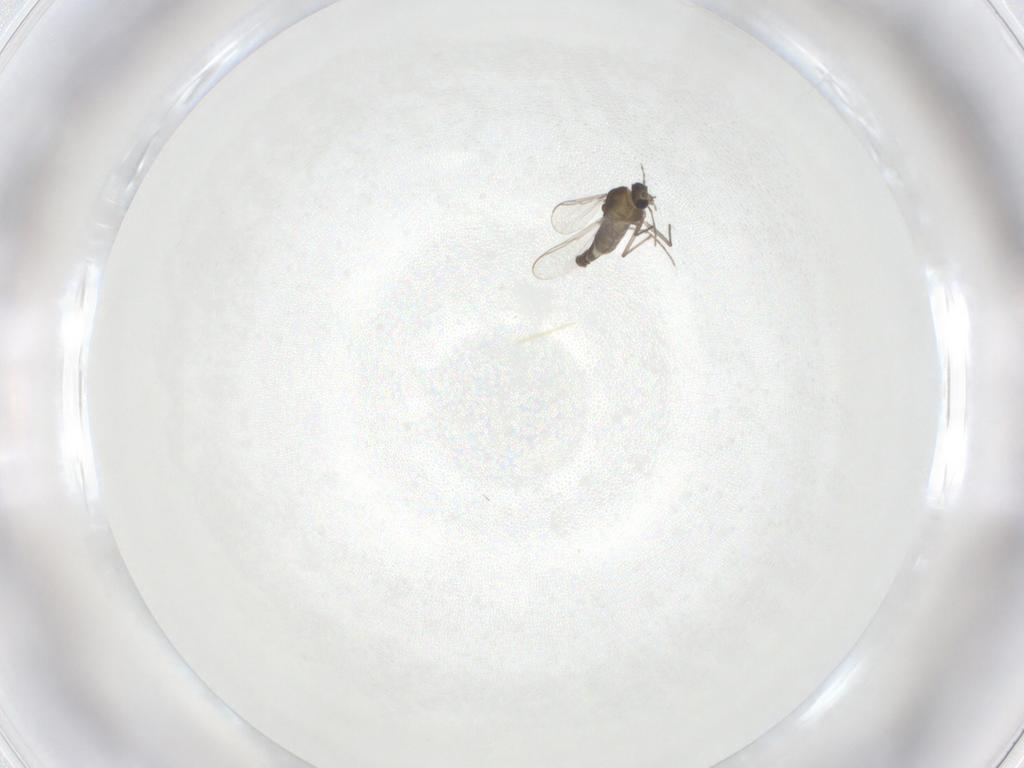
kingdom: Animalia
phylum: Arthropoda
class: Insecta
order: Diptera
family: Chironomidae
